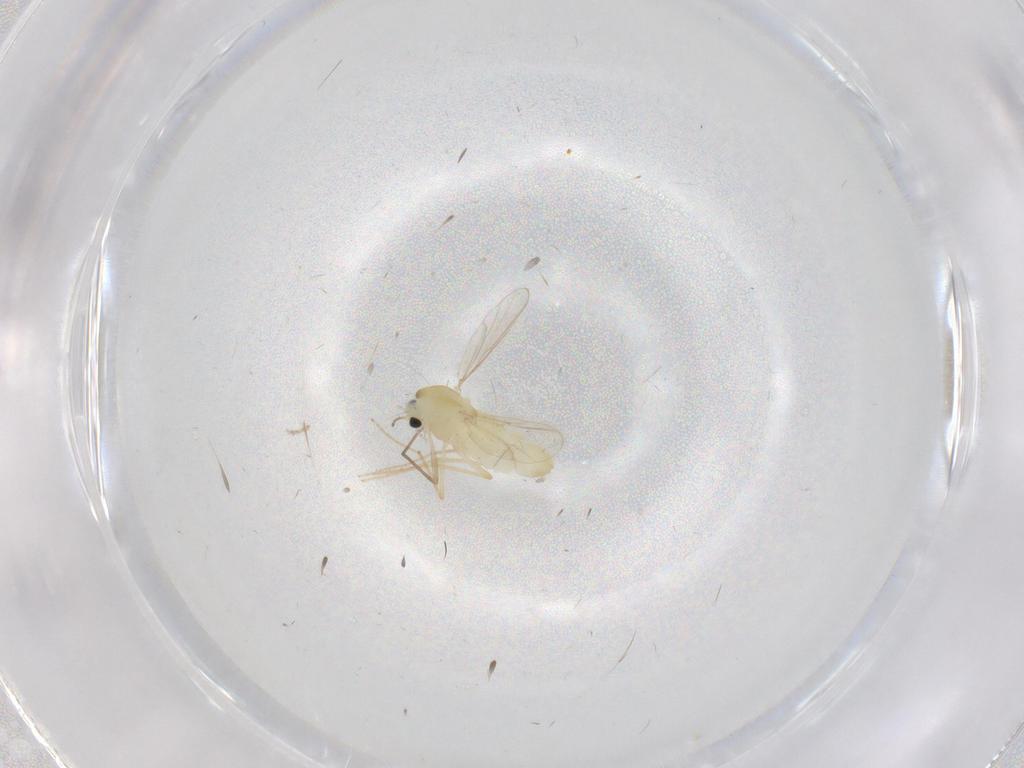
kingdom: Animalia
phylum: Arthropoda
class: Insecta
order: Diptera
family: Chironomidae
